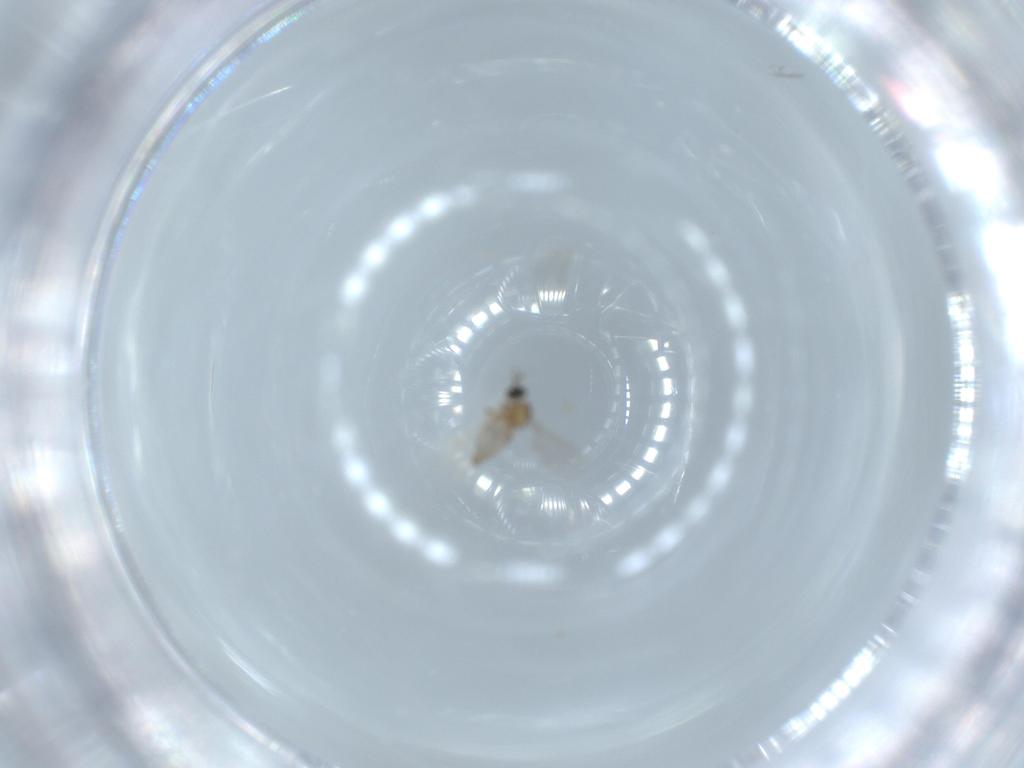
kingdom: Animalia
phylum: Arthropoda
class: Insecta
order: Diptera
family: Cecidomyiidae
